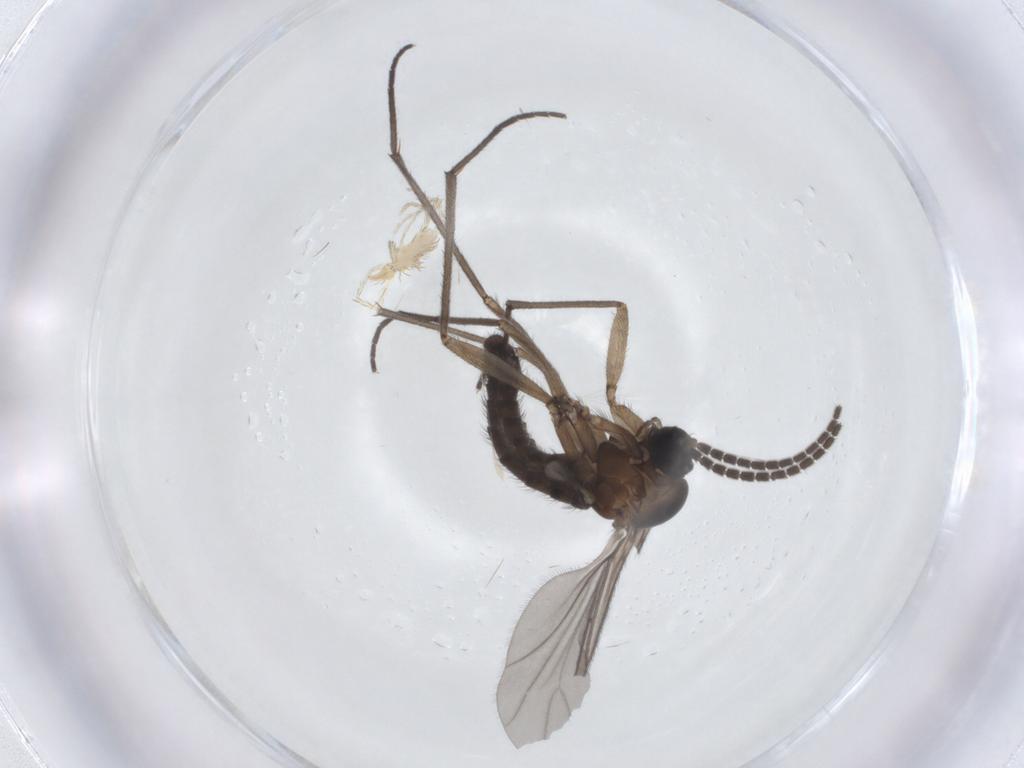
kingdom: Animalia
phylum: Arthropoda
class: Insecta
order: Diptera
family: Sciaridae
